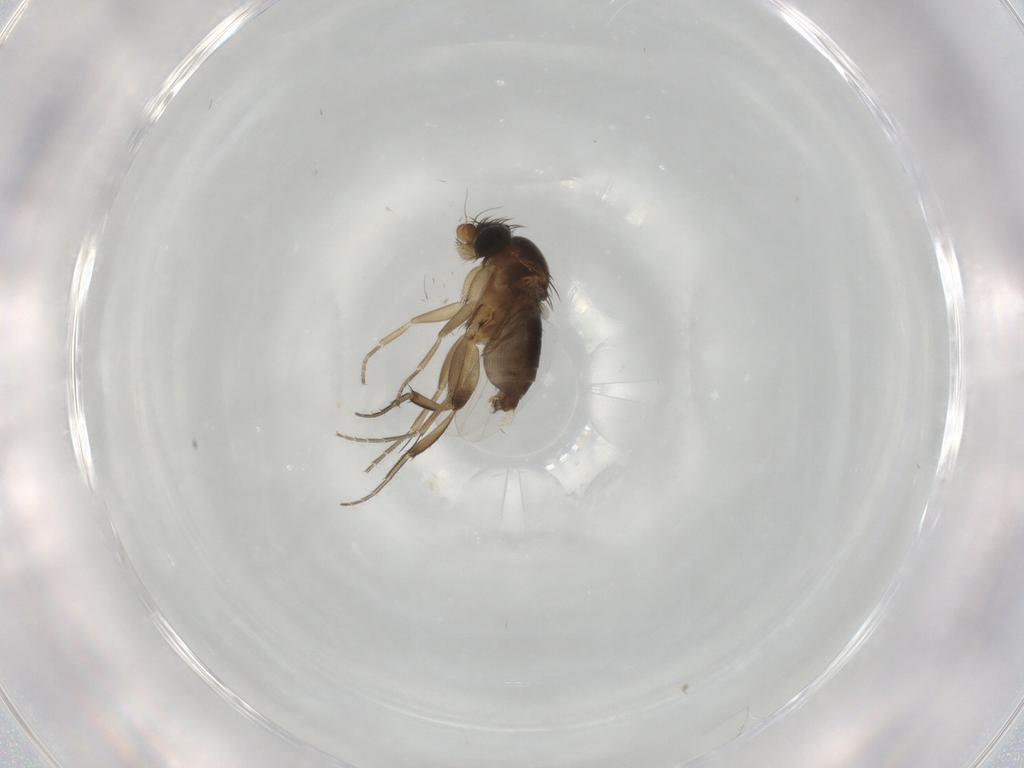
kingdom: Animalia
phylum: Arthropoda
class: Insecta
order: Diptera
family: Phoridae
